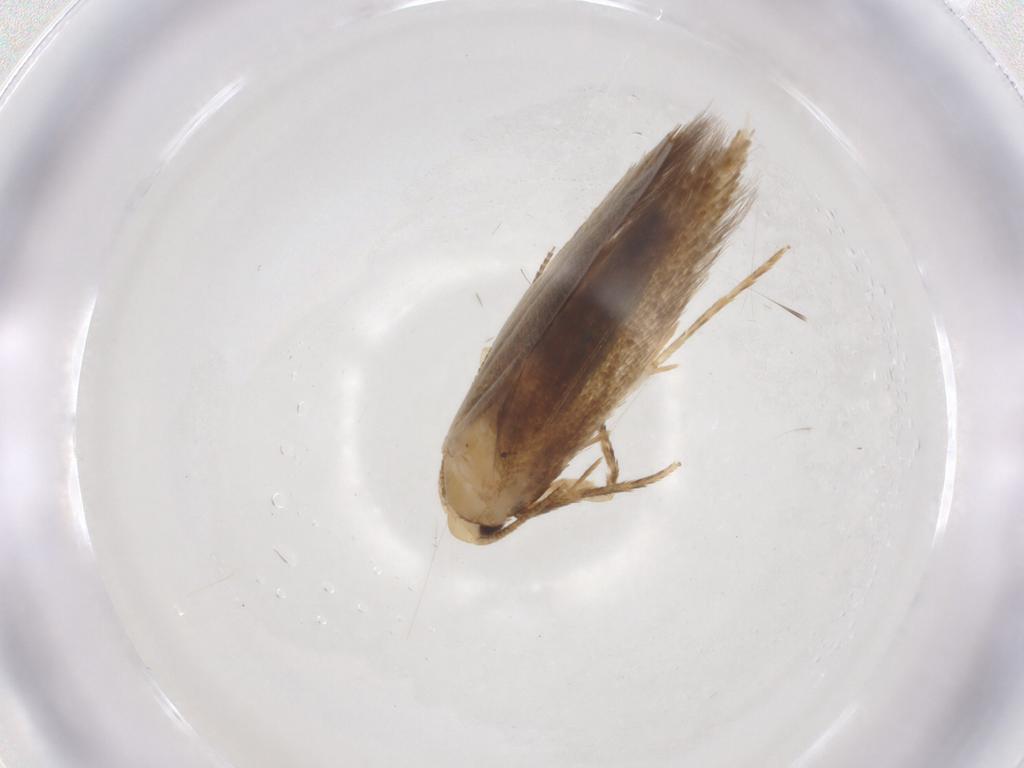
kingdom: Animalia
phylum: Arthropoda
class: Insecta
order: Lepidoptera
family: Tineidae
